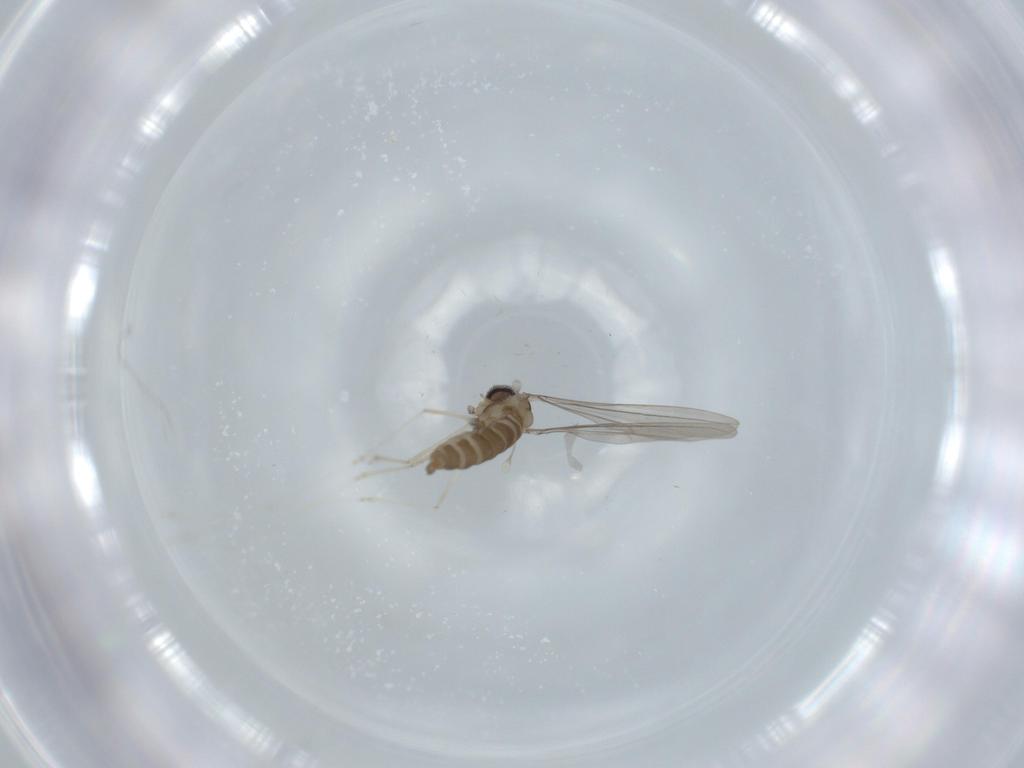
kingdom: Animalia
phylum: Arthropoda
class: Insecta
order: Diptera
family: Cecidomyiidae
